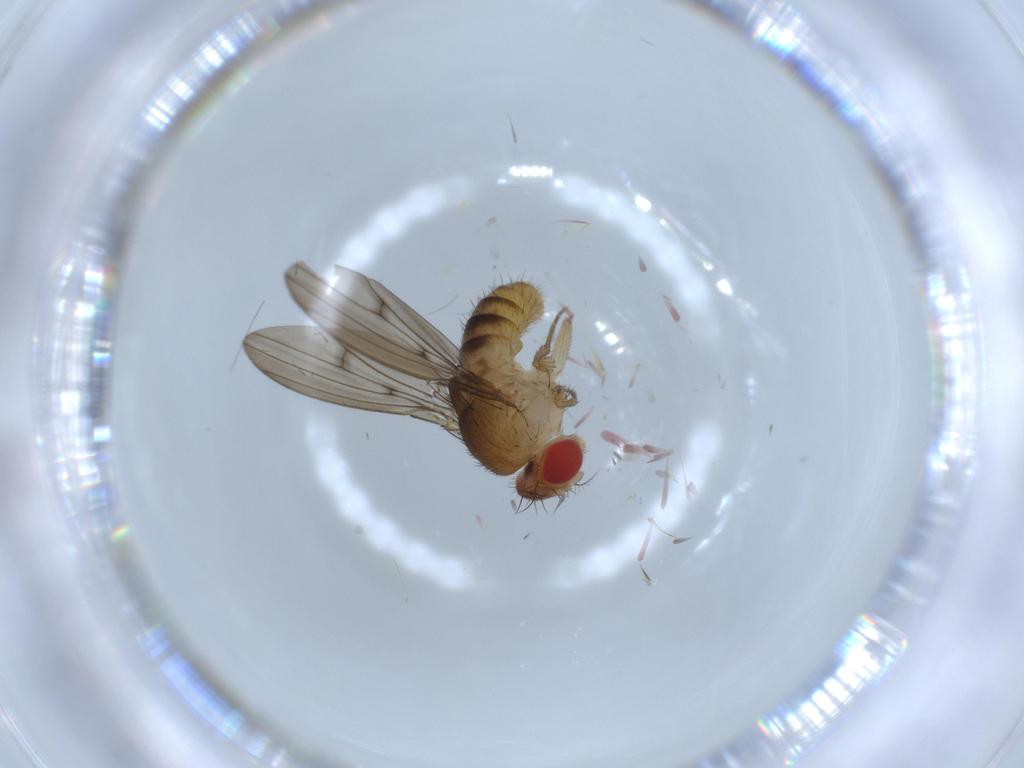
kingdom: Animalia
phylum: Arthropoda
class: Insecta
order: Diptera
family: Drosophilidae
